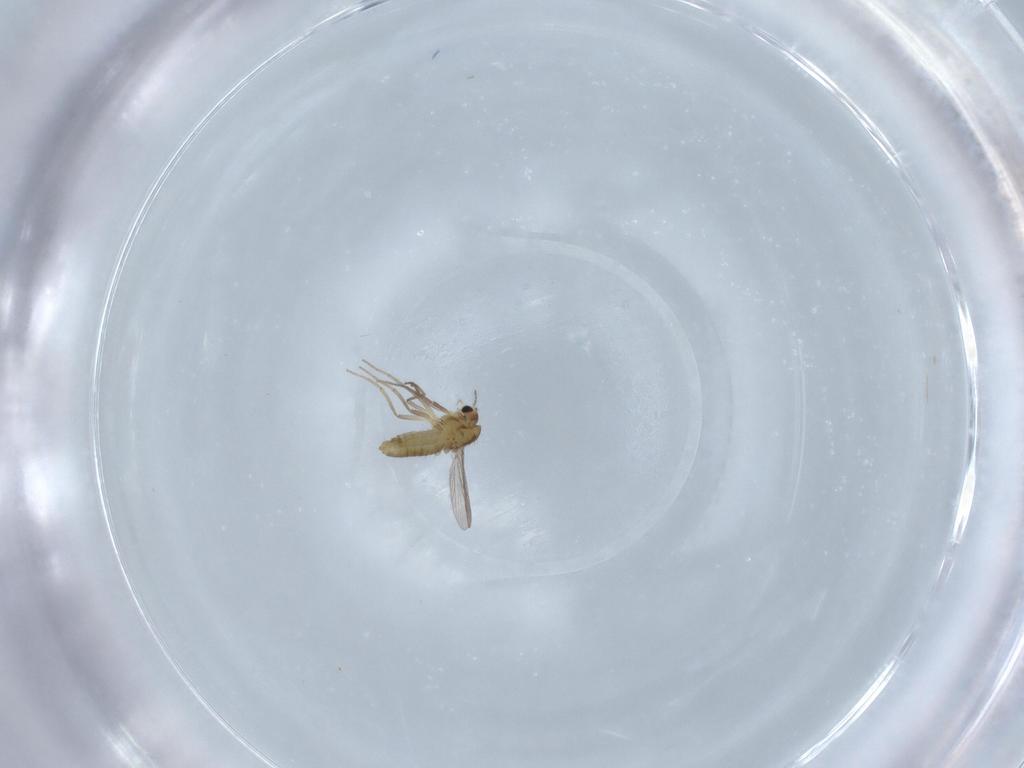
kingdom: Animalia
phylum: Arthropoda
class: Insecta
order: Diptera
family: Chironomidae
